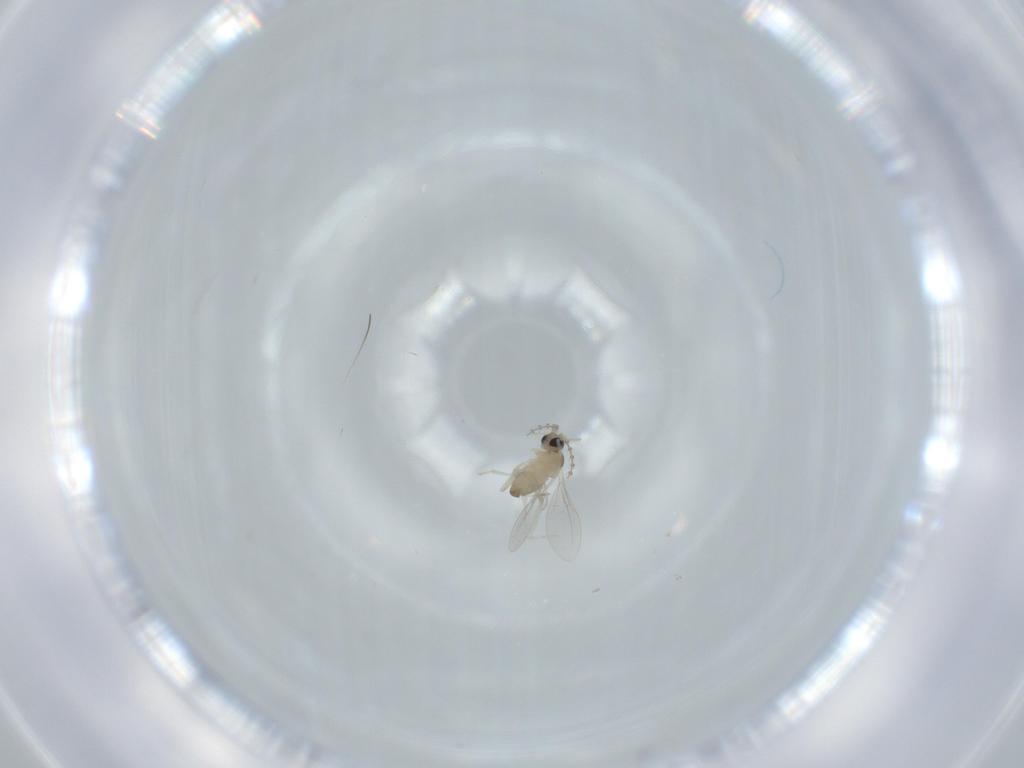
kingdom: Animalia
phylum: Arthropoda
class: Insecta
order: Diptera
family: Cecidomyiidae
